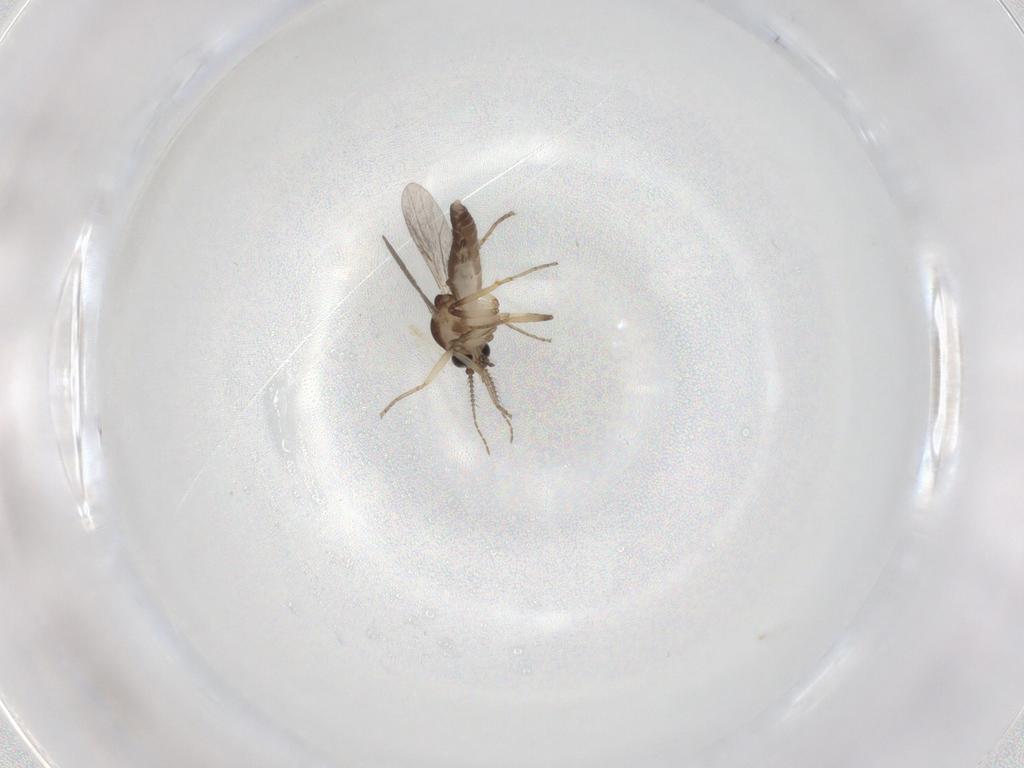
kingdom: Animalia
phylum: Arthropoda
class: Insecta
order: Diptera
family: Ceratopogonidae
